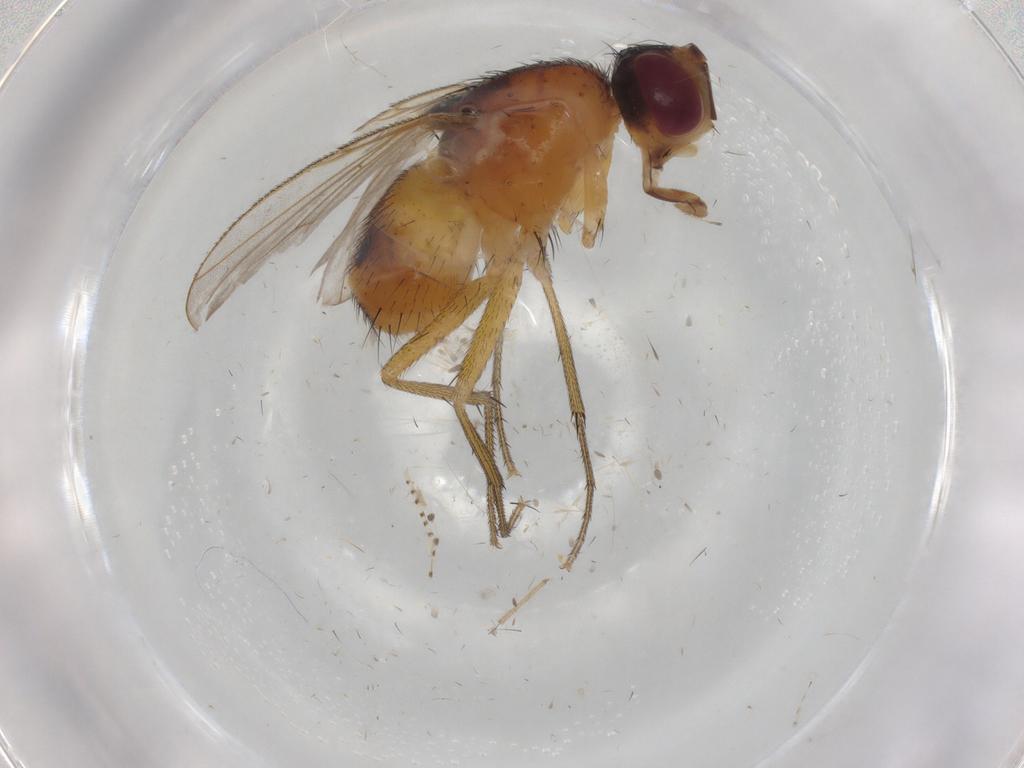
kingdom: Animalia
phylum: Arthropoda
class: Insecta
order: Diptera
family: Muscidae
